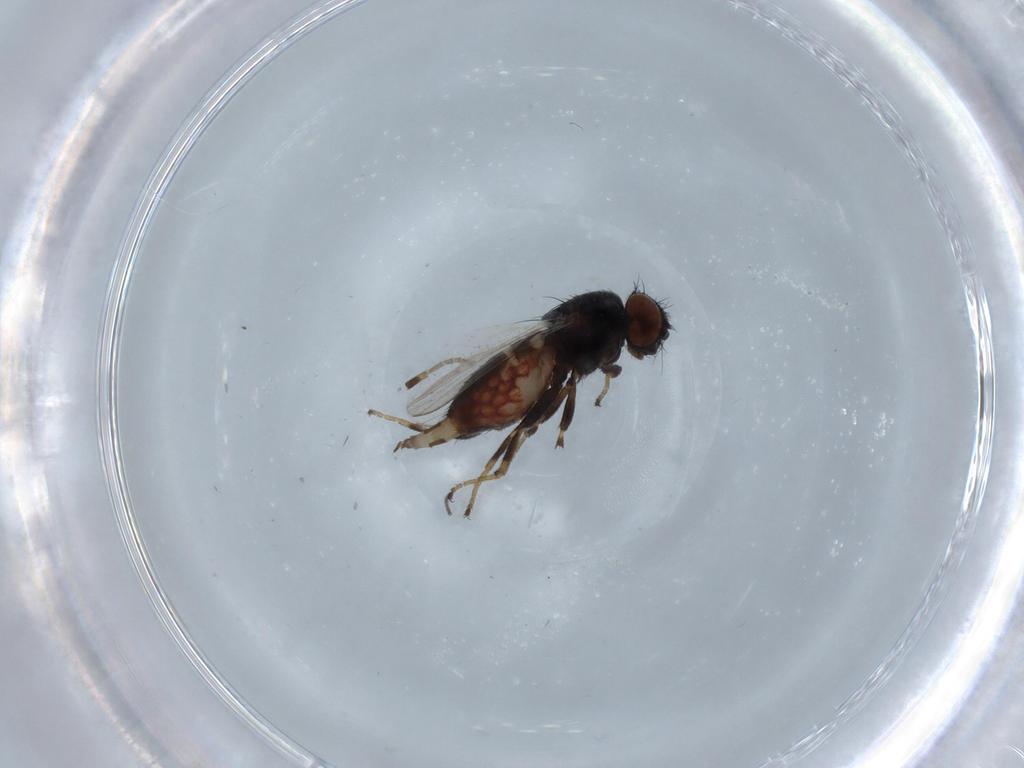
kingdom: Animalia
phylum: Arthropoda
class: Insecta
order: Diptera
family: Milichiidae
